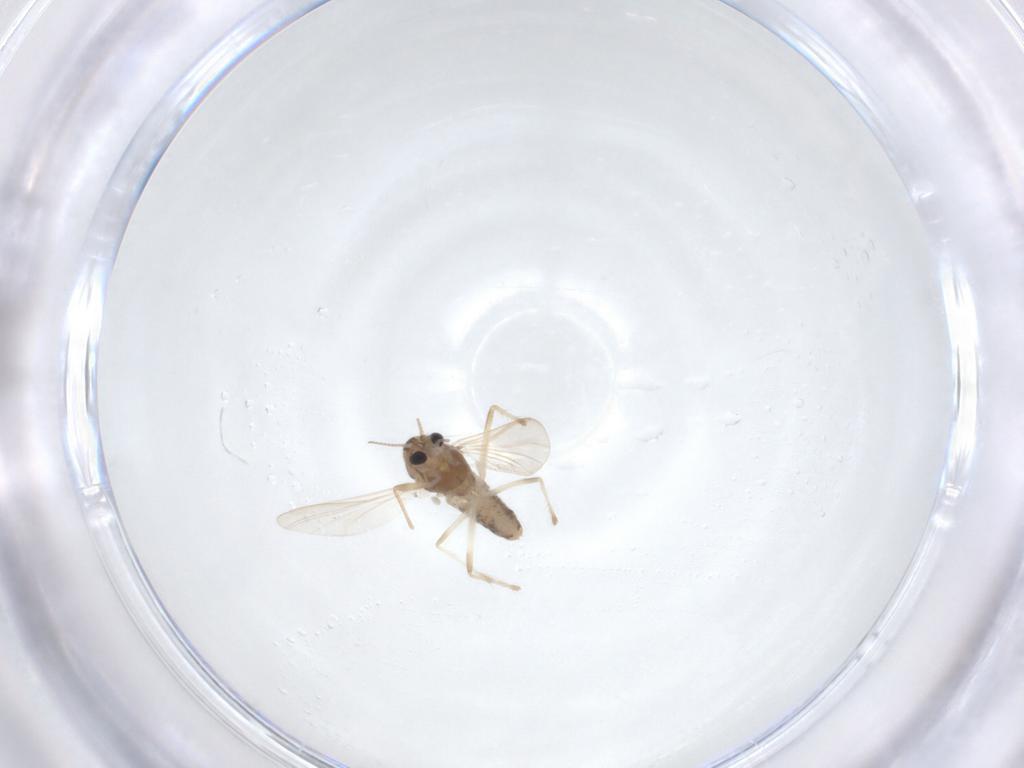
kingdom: Animalia
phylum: Arthropoda
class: Insecta
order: Diptera
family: Chironomidae
